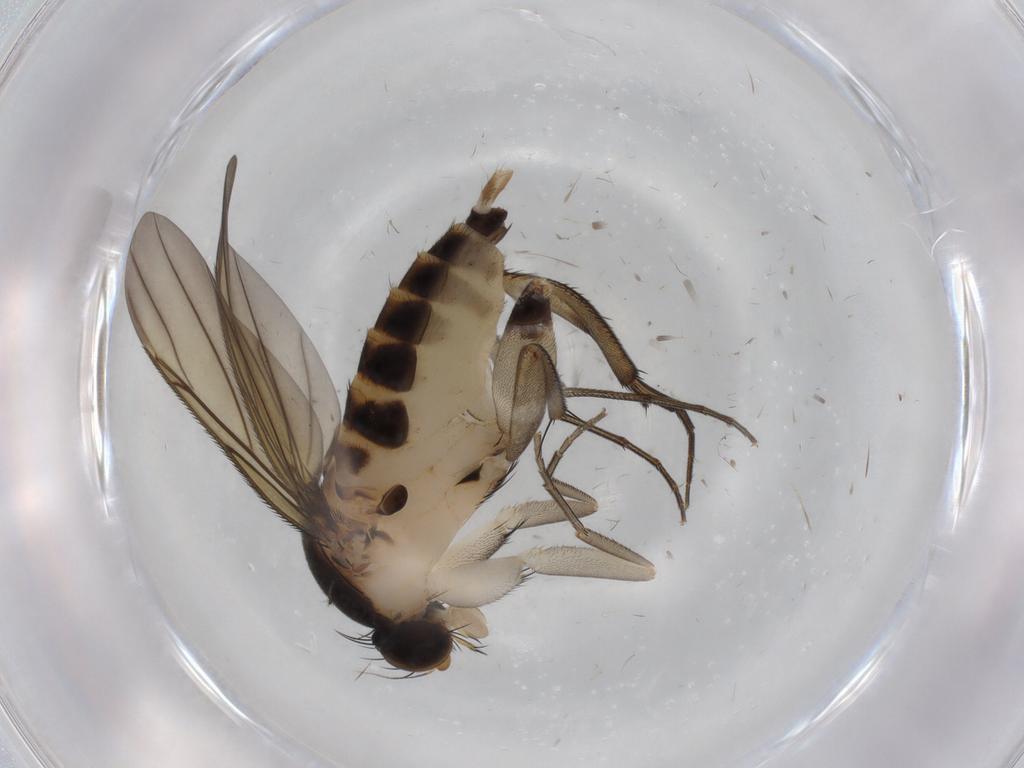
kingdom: Animalia
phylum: Arthropoda
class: Insecta
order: Diptera
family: Phoridae
